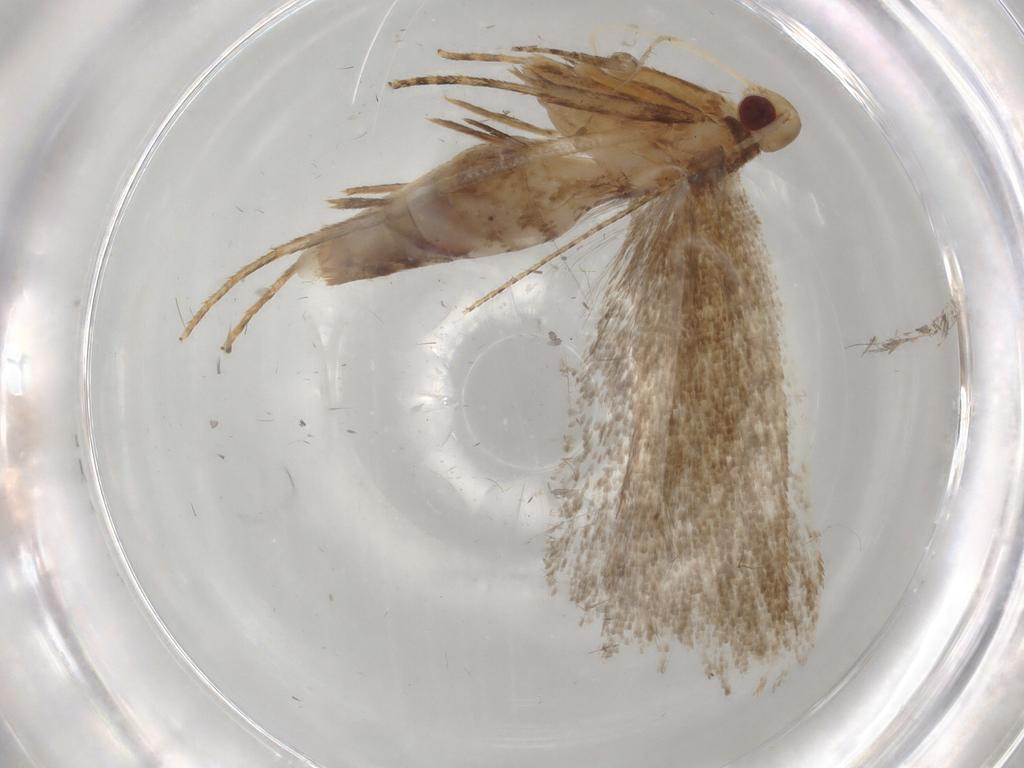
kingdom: Animalia
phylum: Arthropoda
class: Insecta
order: Lepidoptera
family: Gelechiidae
